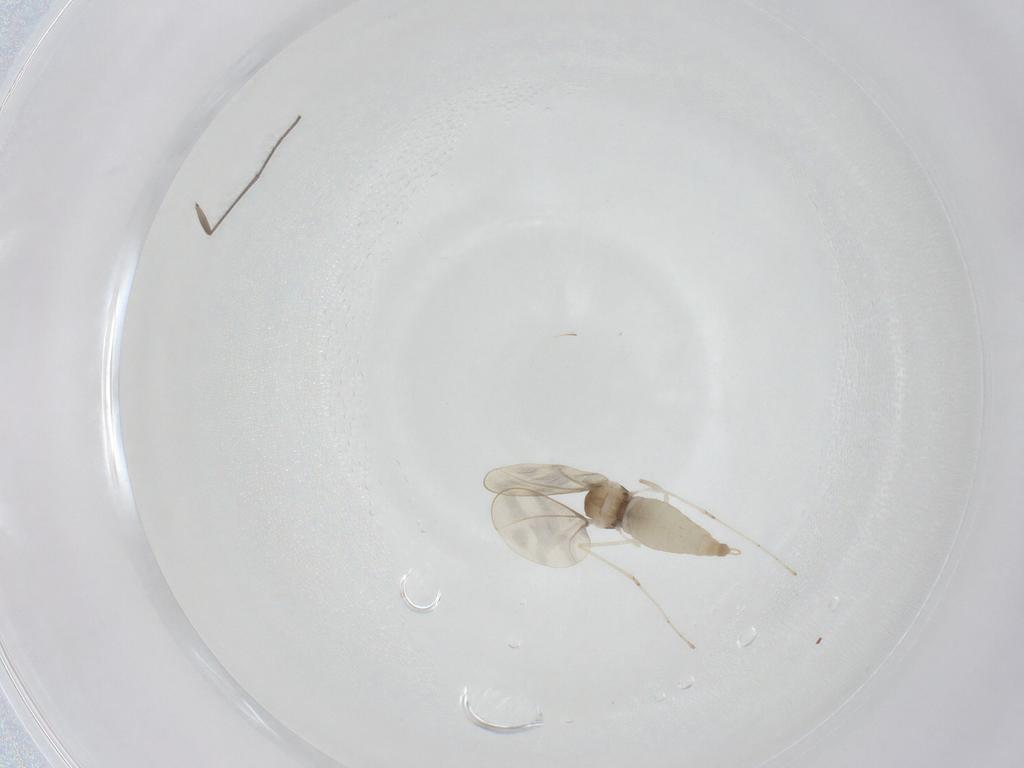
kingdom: Animalia
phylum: Arthropoda
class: Insecta
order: Diptera
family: Sciaridae
